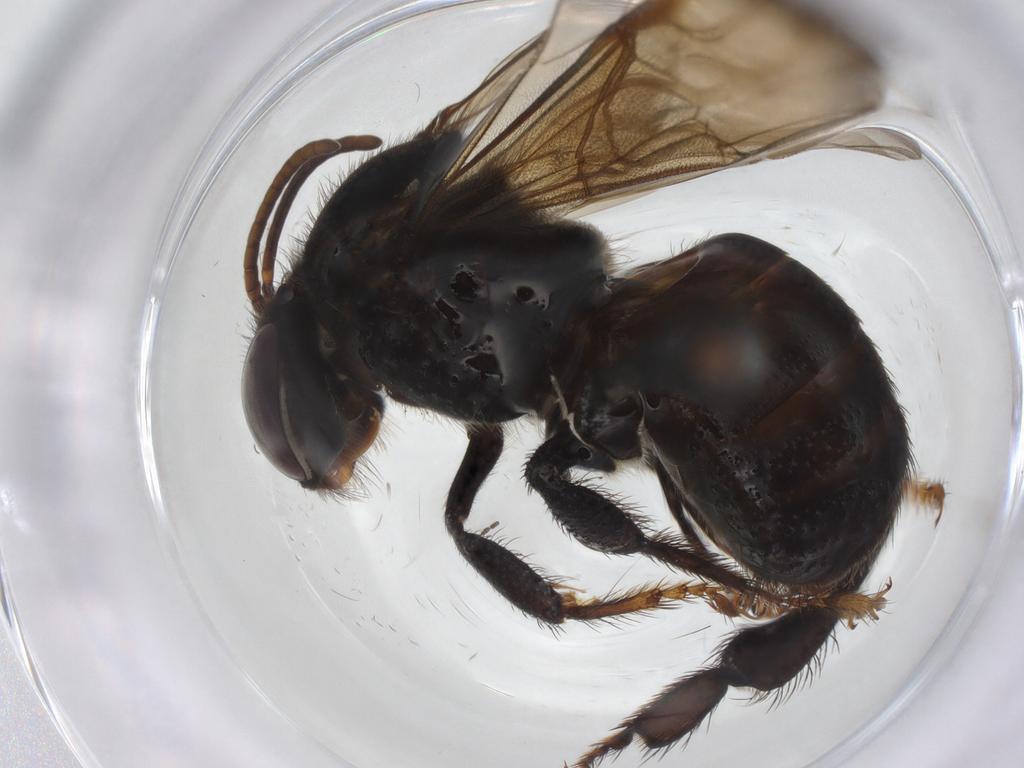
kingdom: Animalia
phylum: Arthropoda
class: Insecta
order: Hymenoptera
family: Apidae
